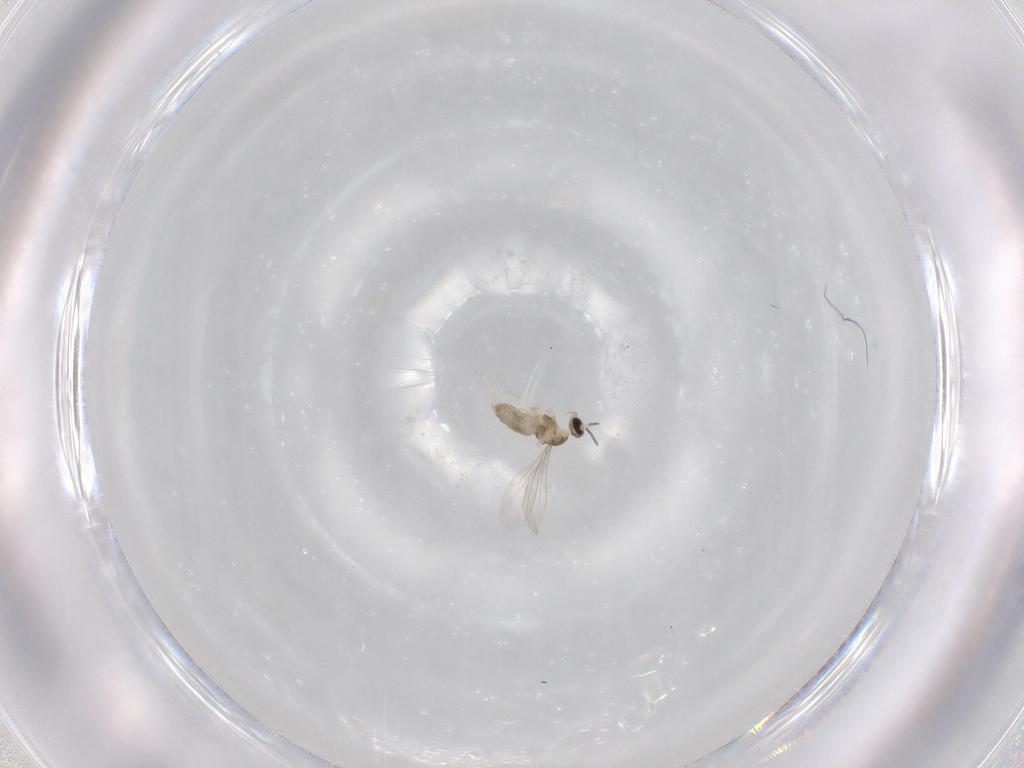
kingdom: Animalia
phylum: Arthropoda
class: Insecta
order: Diptera
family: Cecidomyiidae
